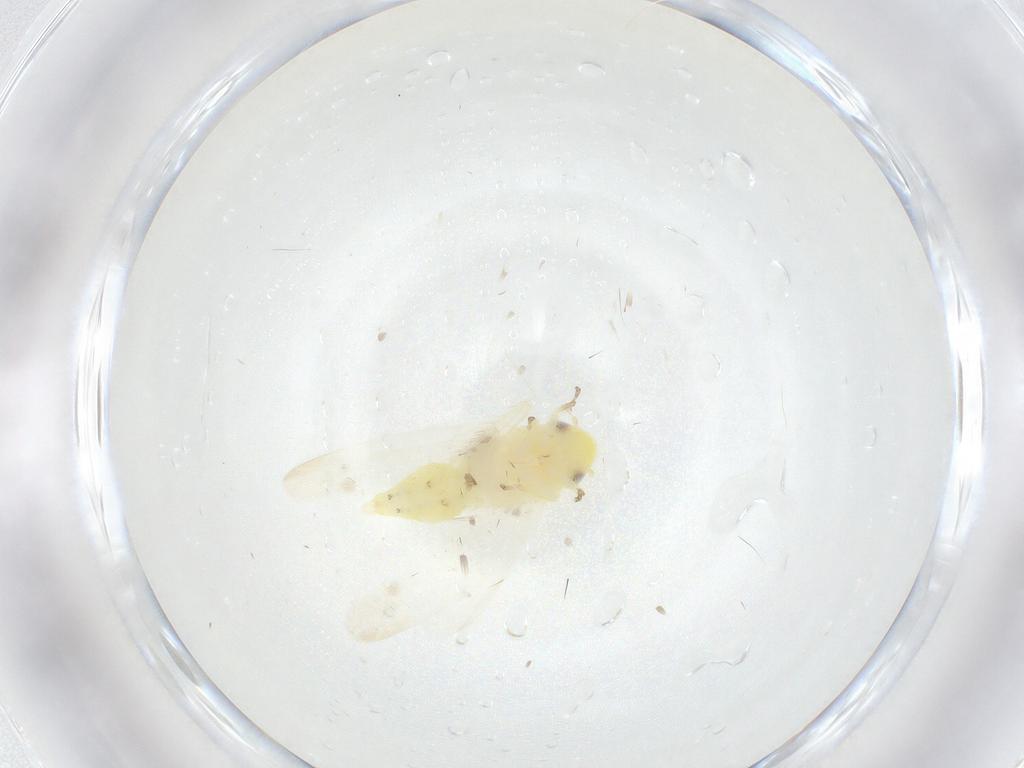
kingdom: Animalia
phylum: Arthropoda
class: Insecta
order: Hemiptera
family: Cicadellidae
